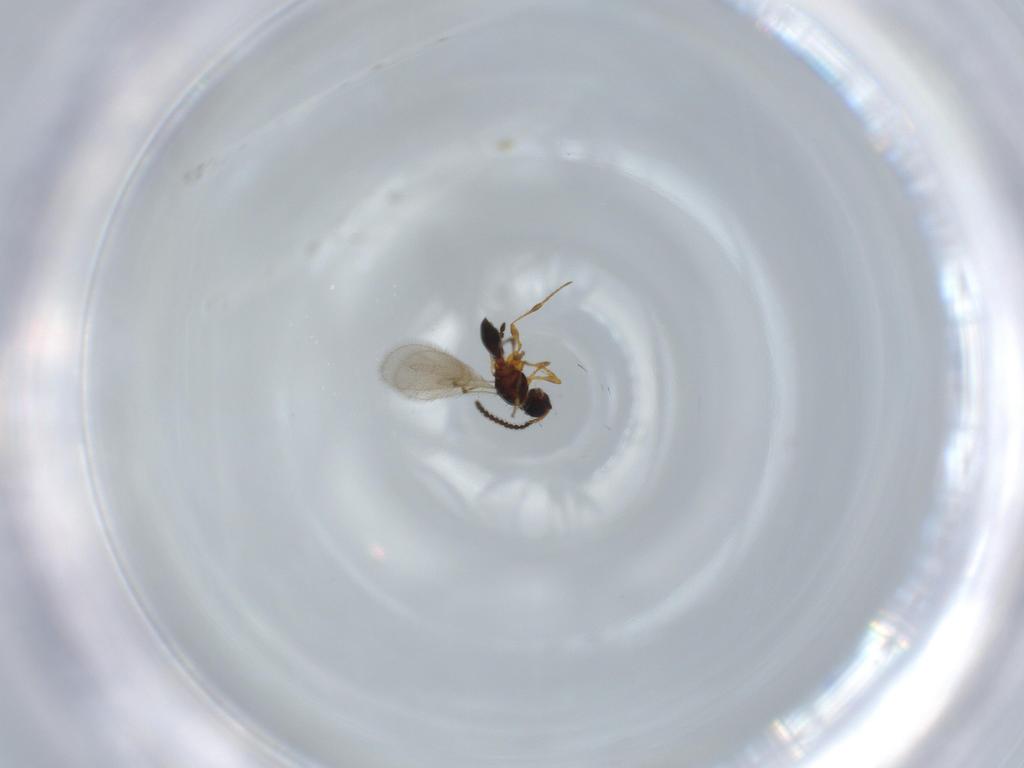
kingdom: Animalia
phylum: Arthropoda
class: Insecta
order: Hymenoptera
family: Diapriidae
